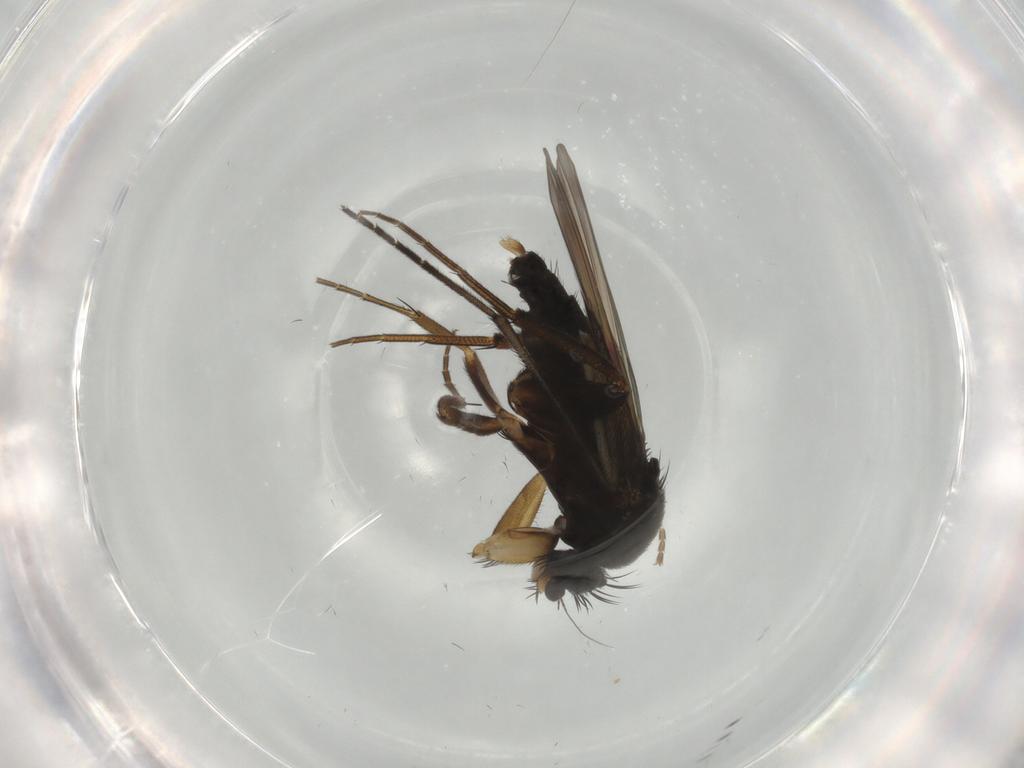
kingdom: Animalia
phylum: Arthropoda
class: Insecta
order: Diptera
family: Phoridae
